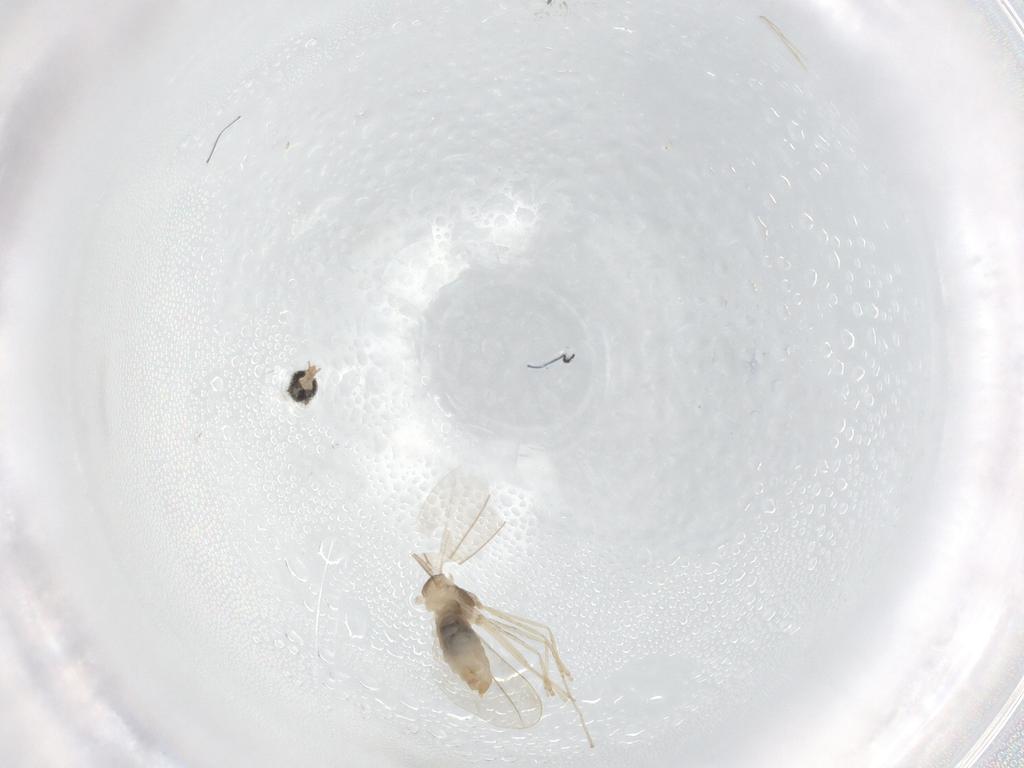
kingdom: Animalia
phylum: Arthropoda
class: Insecta
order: Diptera
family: Cecidomyiidae
